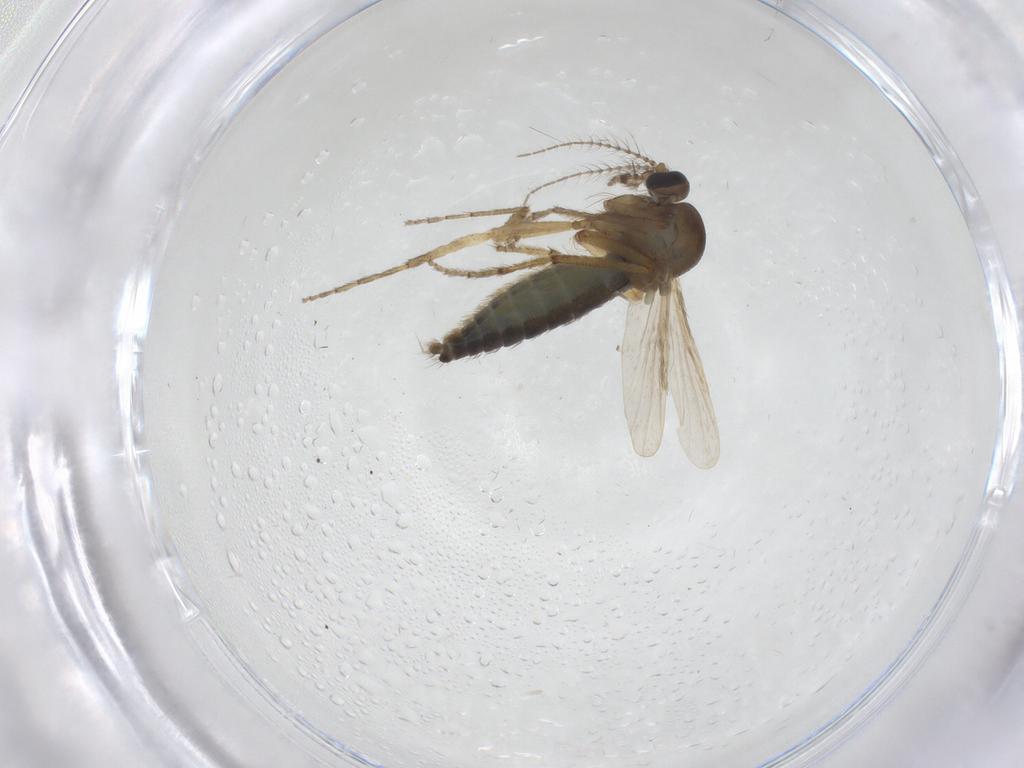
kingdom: Animalia
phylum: Arthropoda
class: Insecta
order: Diptera
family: Ceratopogonidae
